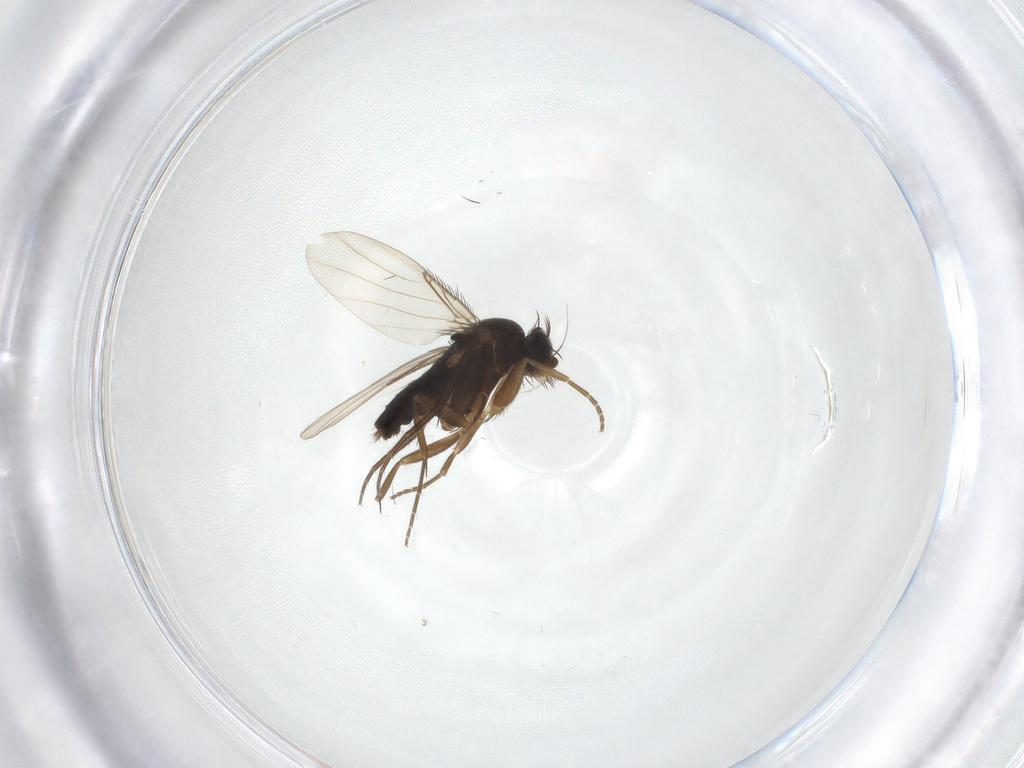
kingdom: Animalia
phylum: Arthropoda
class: Insecta
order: Diptera
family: Phoridae
